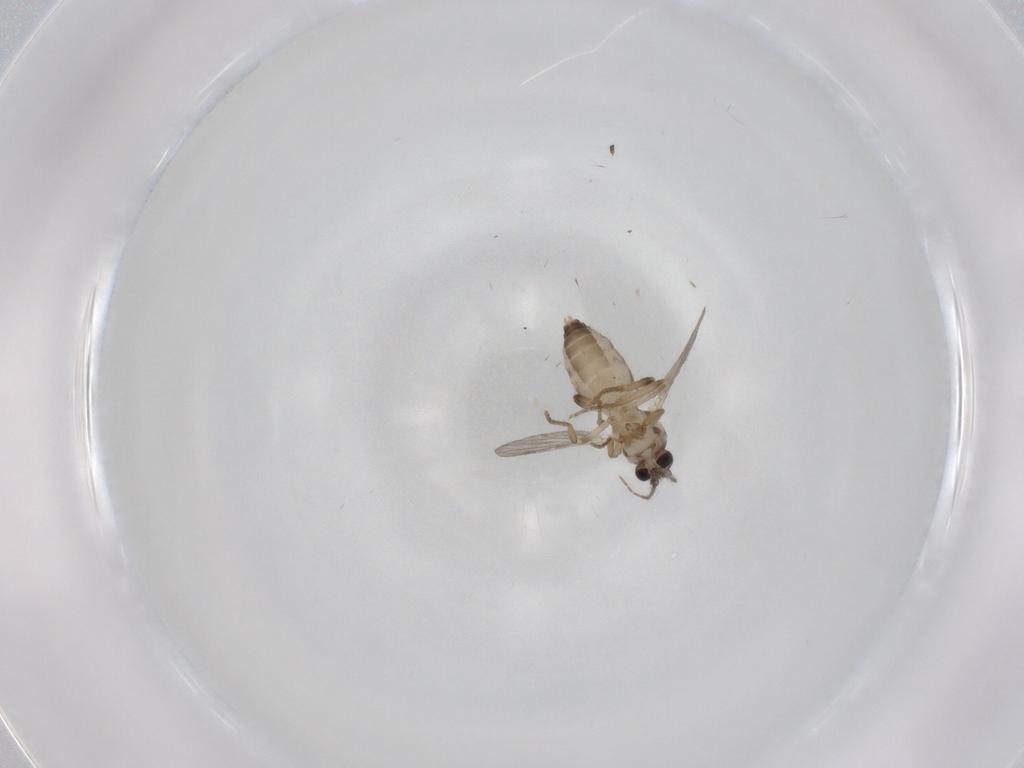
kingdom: Animalia
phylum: Arthropoda
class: Insecta
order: Diptera
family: Ceratopogonidae
